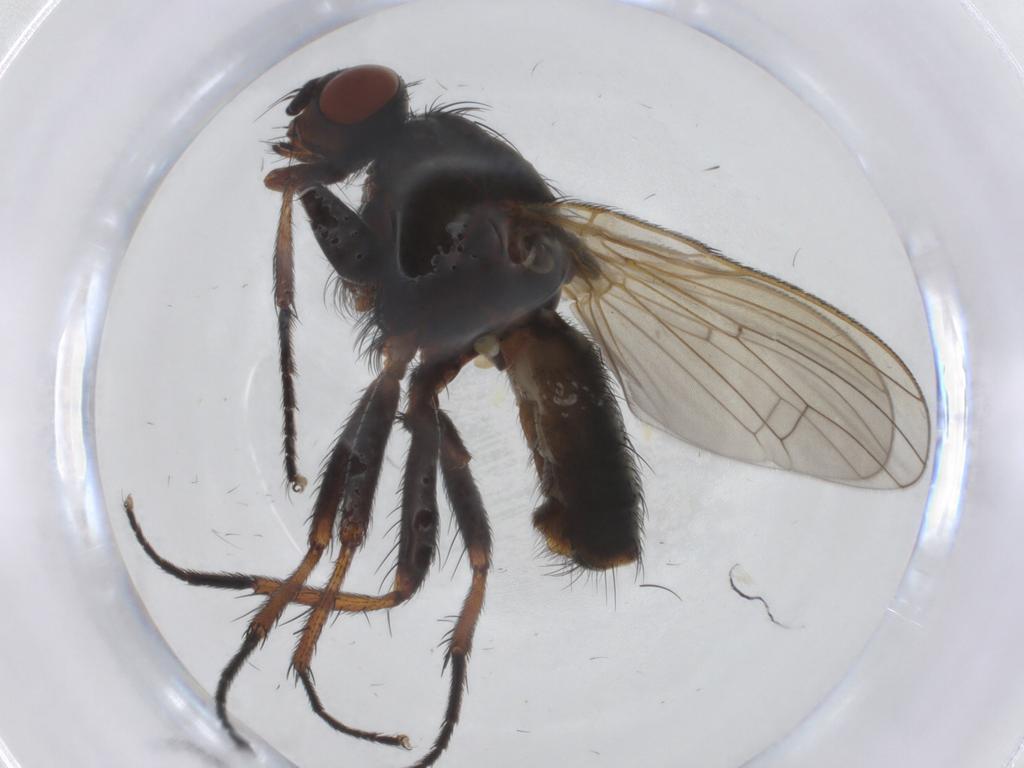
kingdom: Animalia
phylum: Arthropoda
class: Insecta
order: Diptera
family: Anthomyiidae
